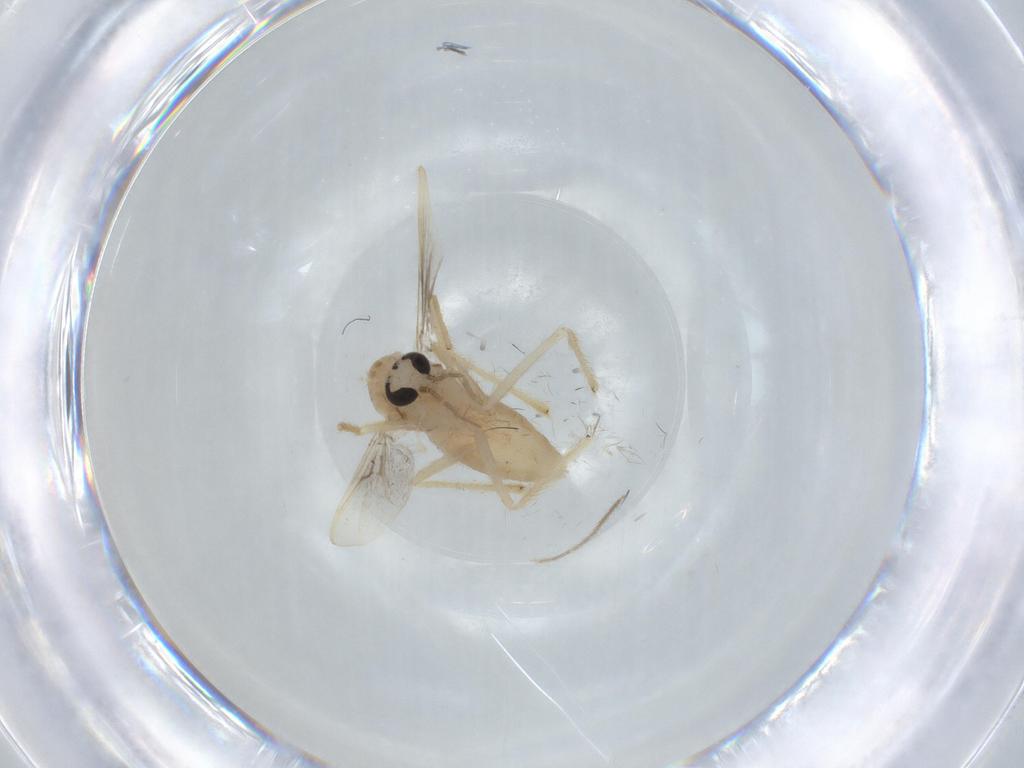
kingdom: Animalia
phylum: Arthropoda
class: Insecta
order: Diptera
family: Chironomidae
